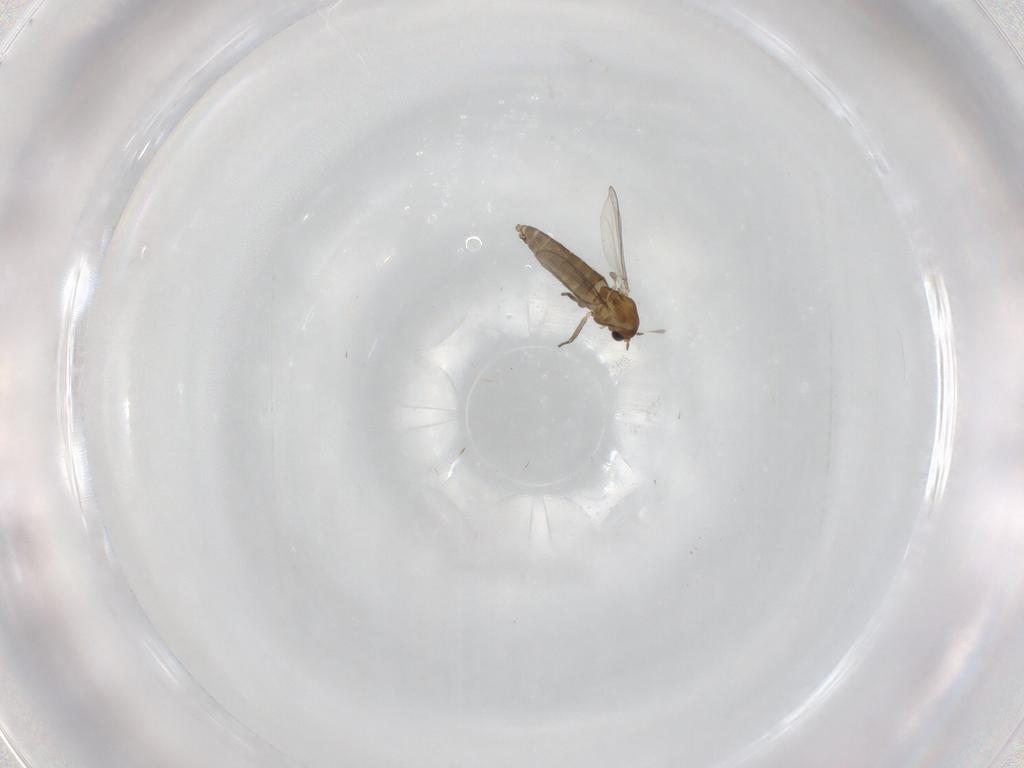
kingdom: Animalia
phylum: Arthropoda
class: Insecta
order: Diptera
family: Chironomidae
